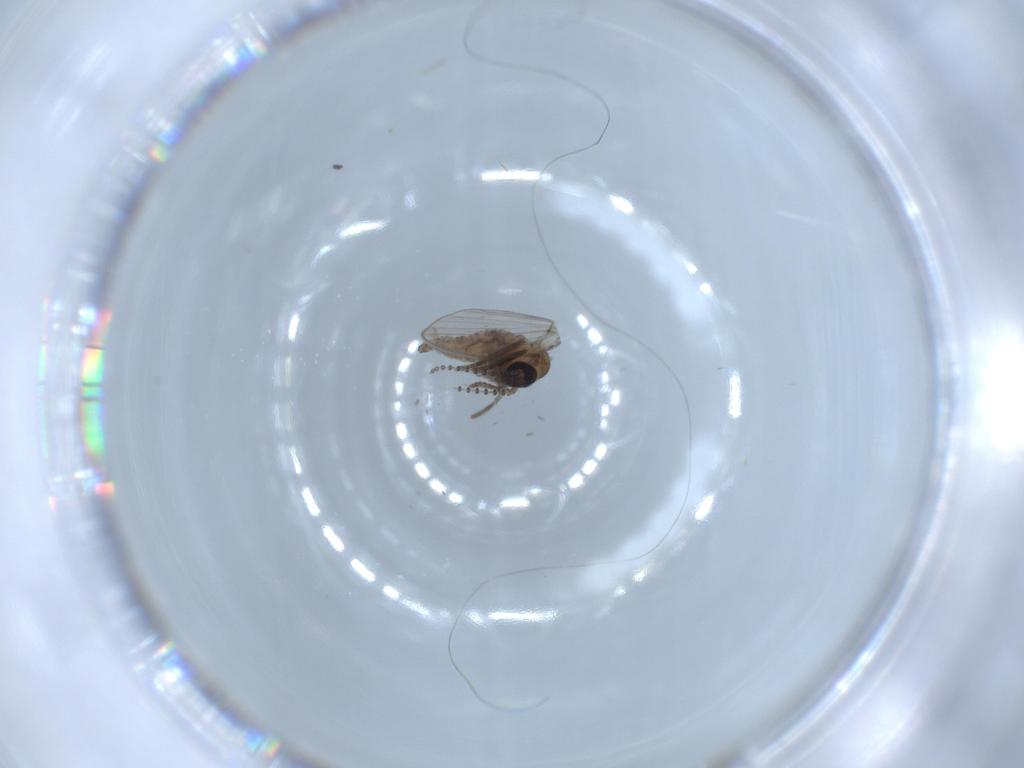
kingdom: Animalia
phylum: Arthropoda
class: Insecta
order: Diptera
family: Psychodidae
